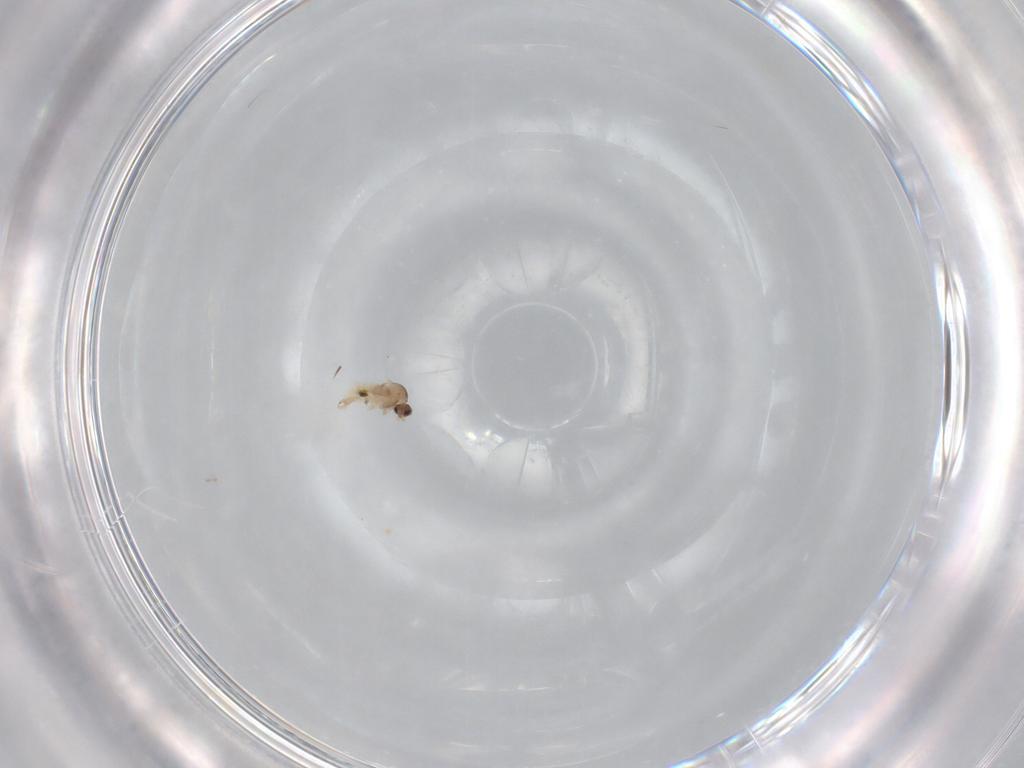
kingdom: Animalia
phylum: Arthropoda
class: Insecta
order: Diptera
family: Cecidomyiidae
